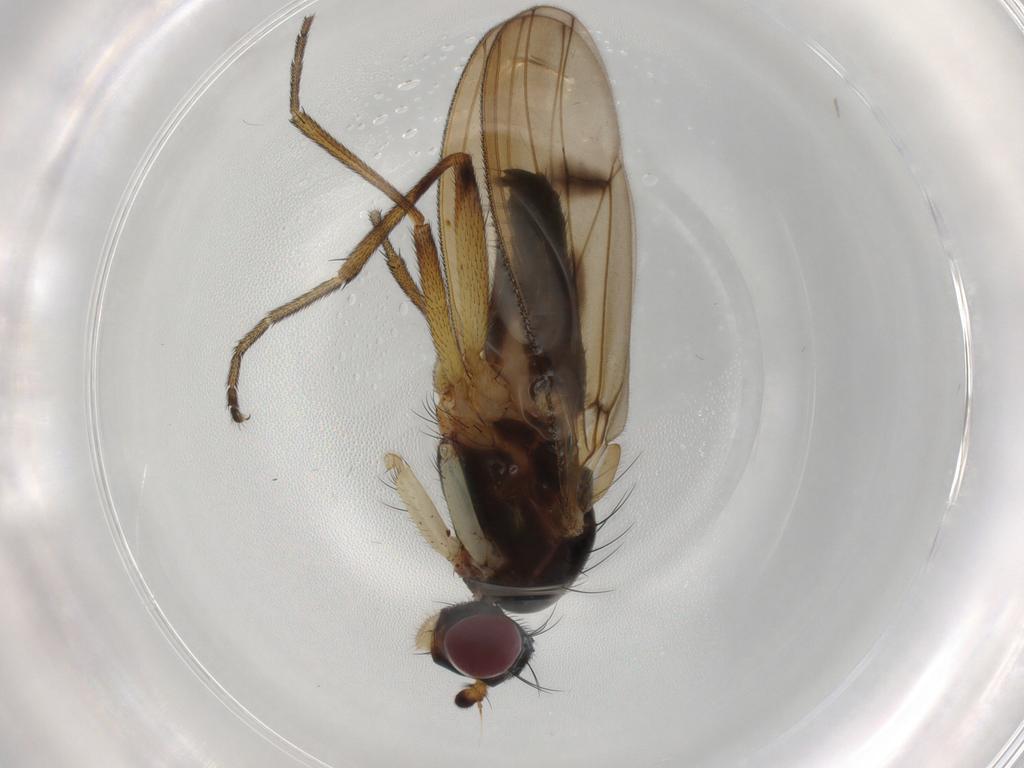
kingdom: Animalia
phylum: Arthropoda
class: Insecta
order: Diptera
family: Sciomyzidae
